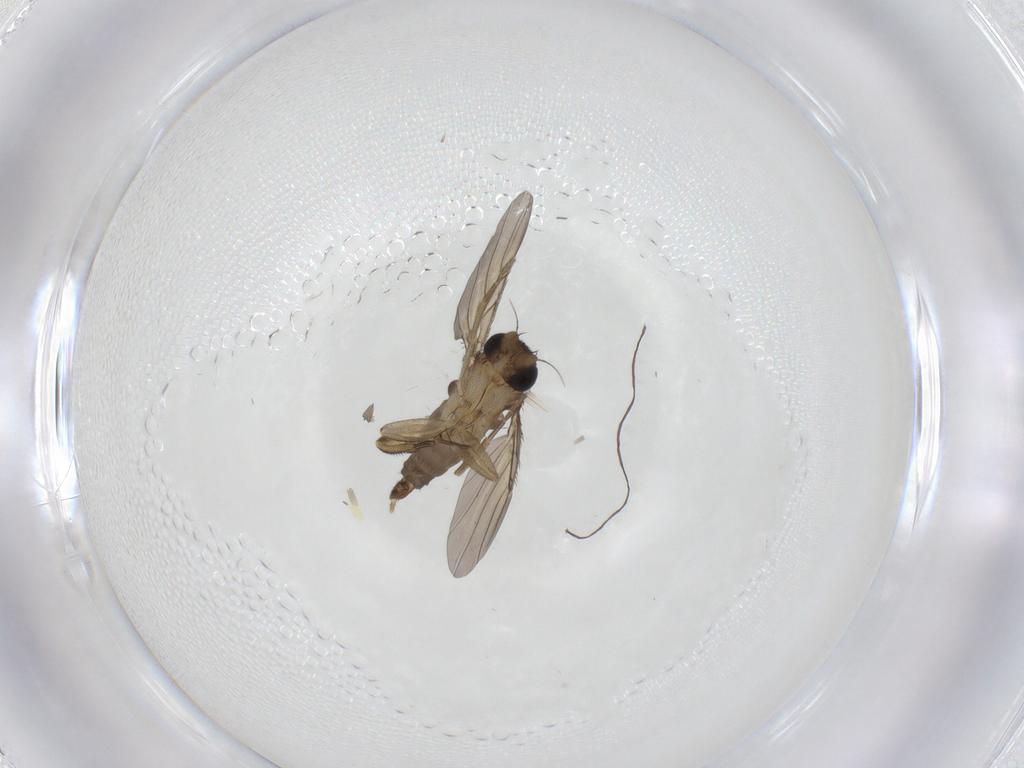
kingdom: Animalia
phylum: Arthropoda
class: Insecta
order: Diptera
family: Phoridae
